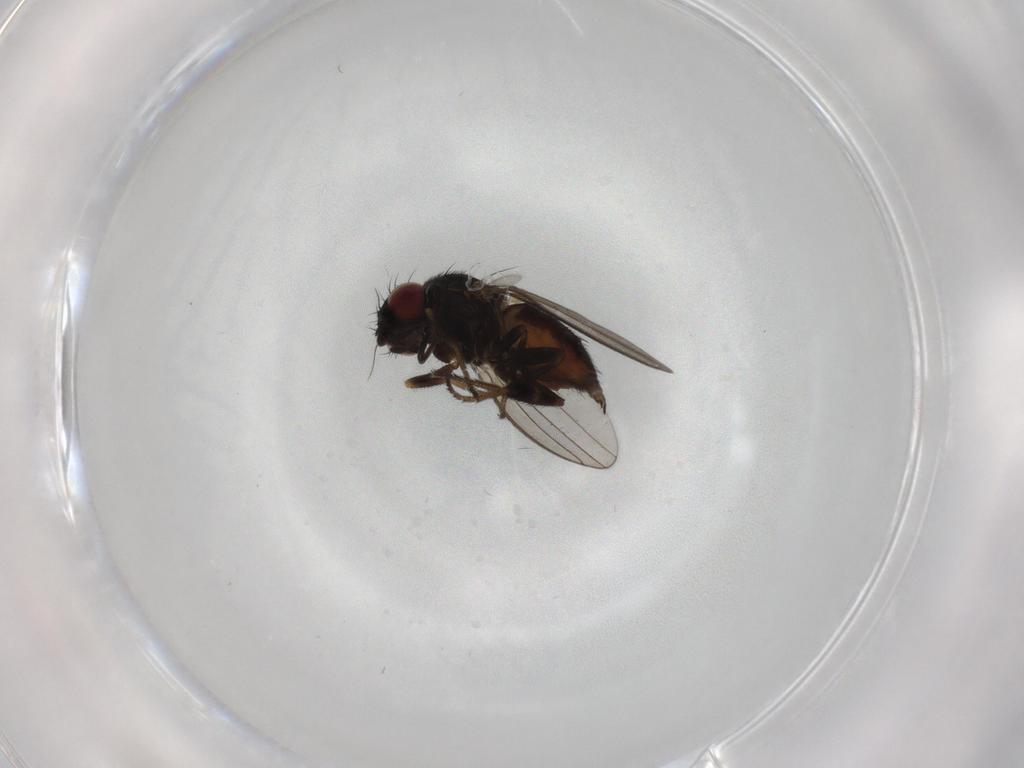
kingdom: Animalia
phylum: Arthropoda
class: Insecta
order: Diptera
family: Milichiidae
